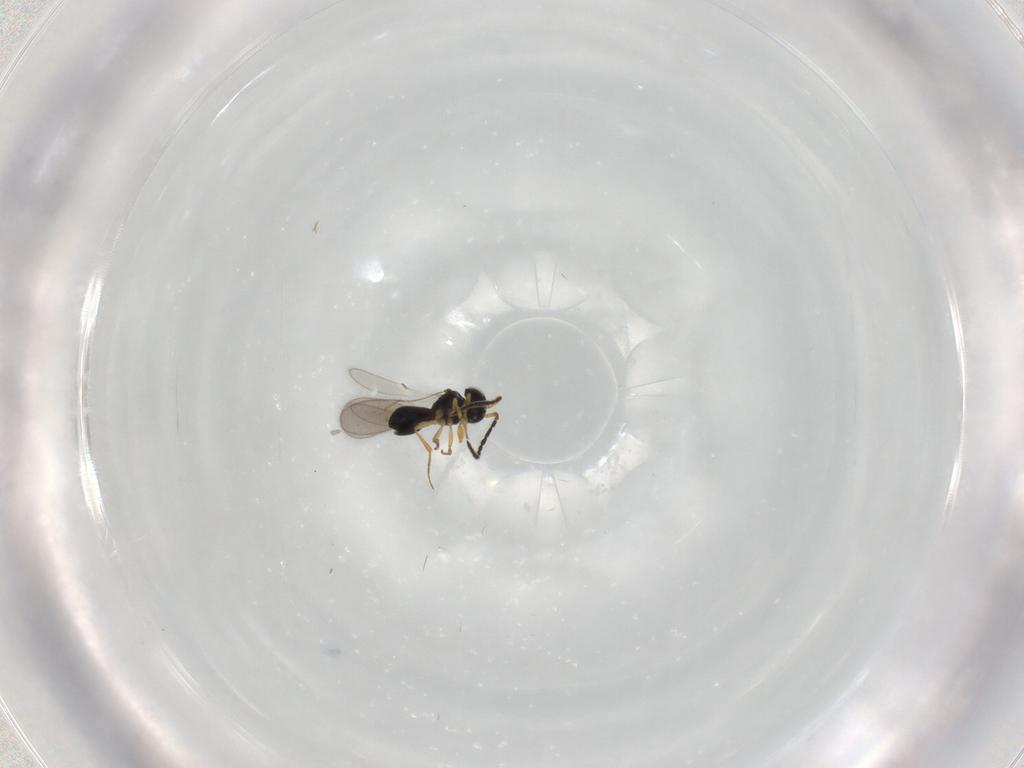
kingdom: Animalia
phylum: Arthropoda
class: Insecta
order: Hymenoptera
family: Scelionidae
